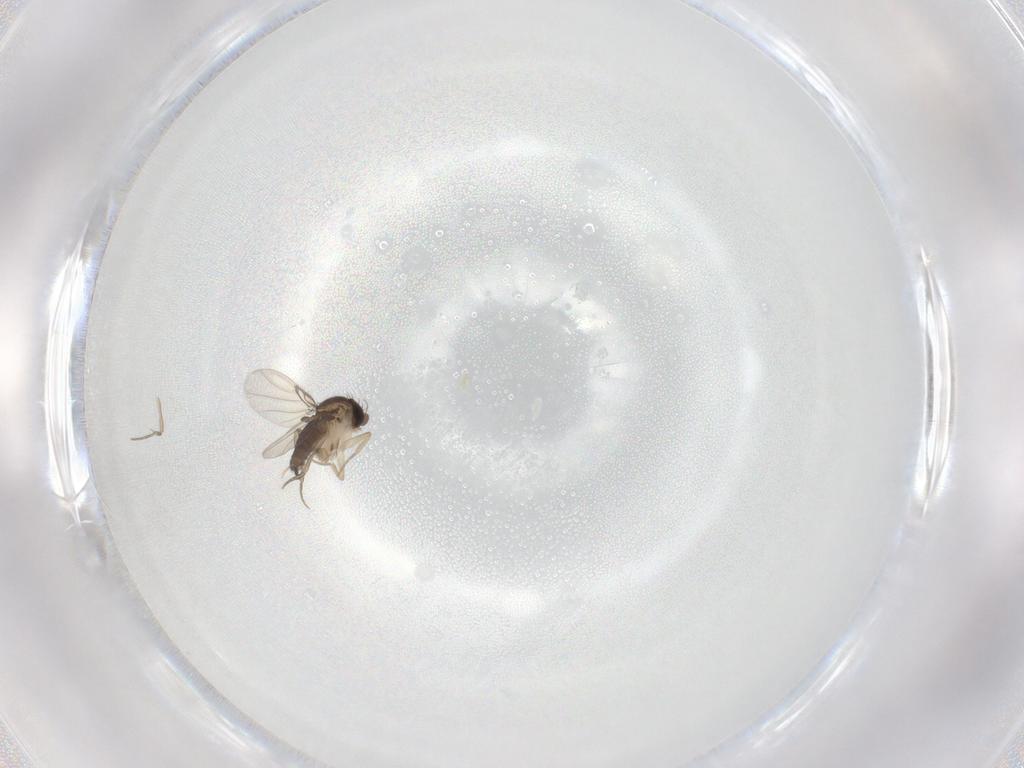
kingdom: Animalia
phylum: Arthropoda
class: Insecta
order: Diptera
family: Phoridae
